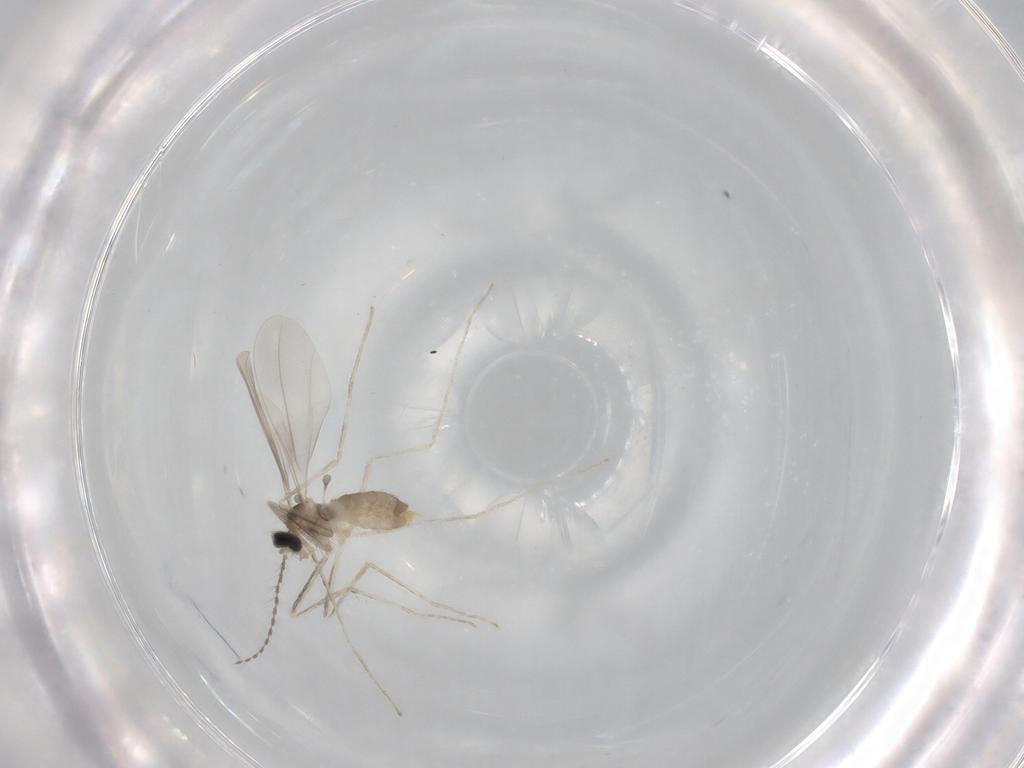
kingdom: Animalia
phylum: Arthropoda
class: Insecta
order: Diptera
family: Cecidomyiidae
